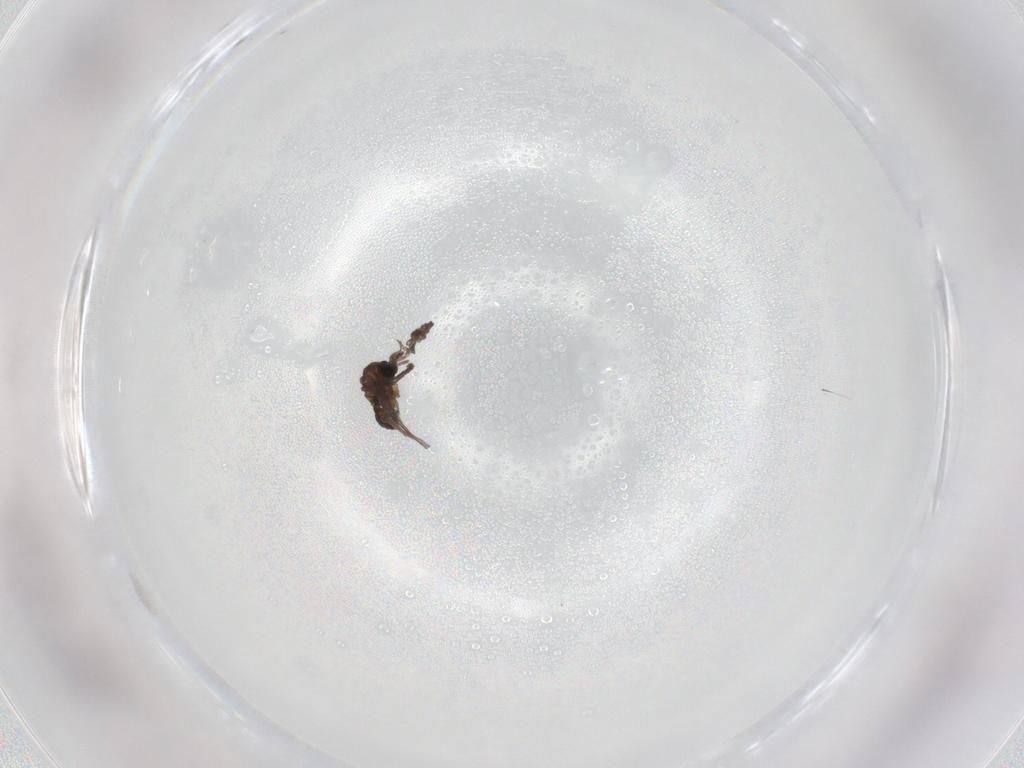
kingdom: Animalia
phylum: Arthropoda
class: Insecta
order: Diptera
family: Sciaridae
